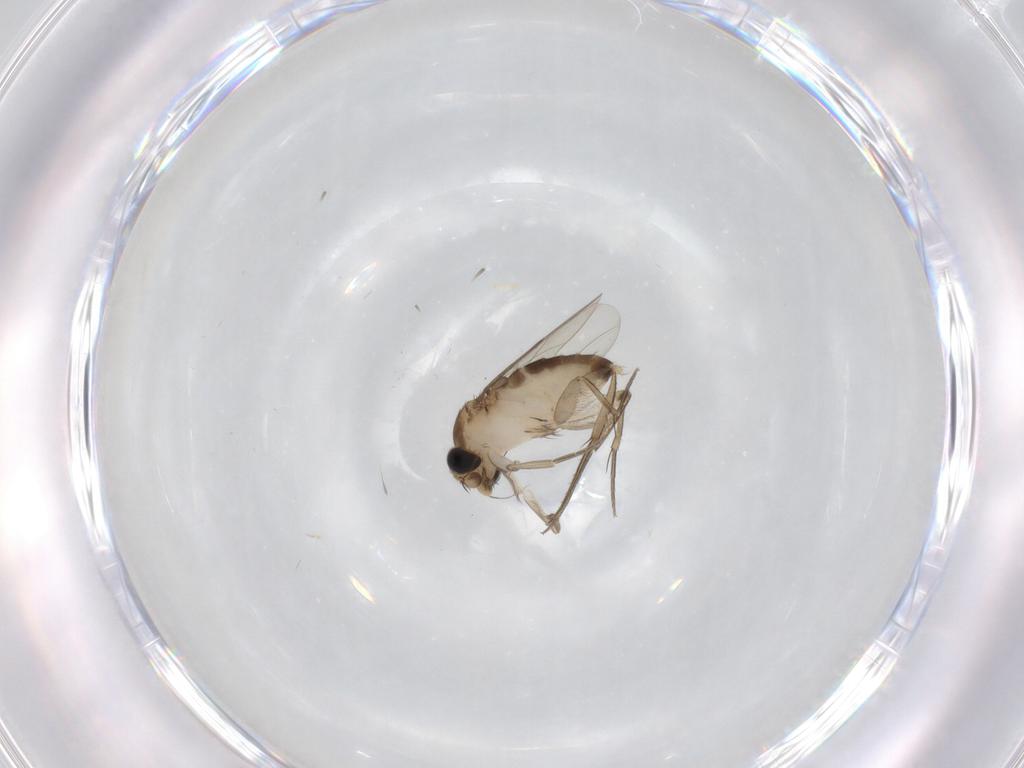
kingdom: Animalia
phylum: Arthropoda
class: Insecta
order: Diptera
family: Phoridae
